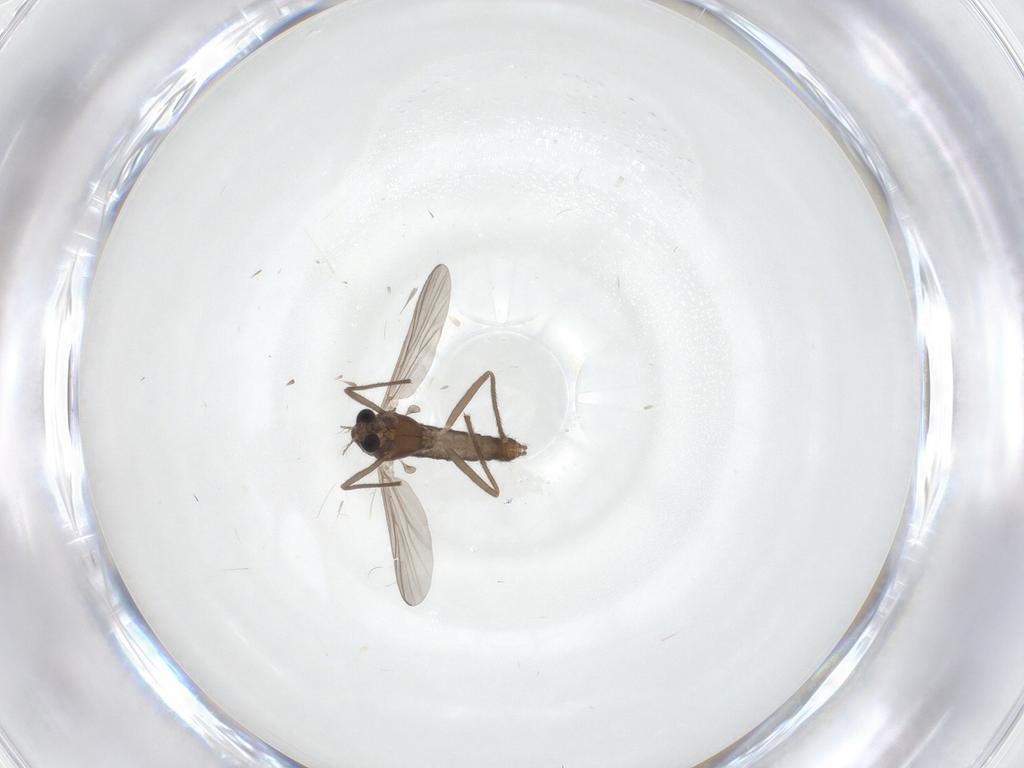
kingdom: Animalia
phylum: Arthropoda
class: Insecta
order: Diptera
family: Chironomidae
